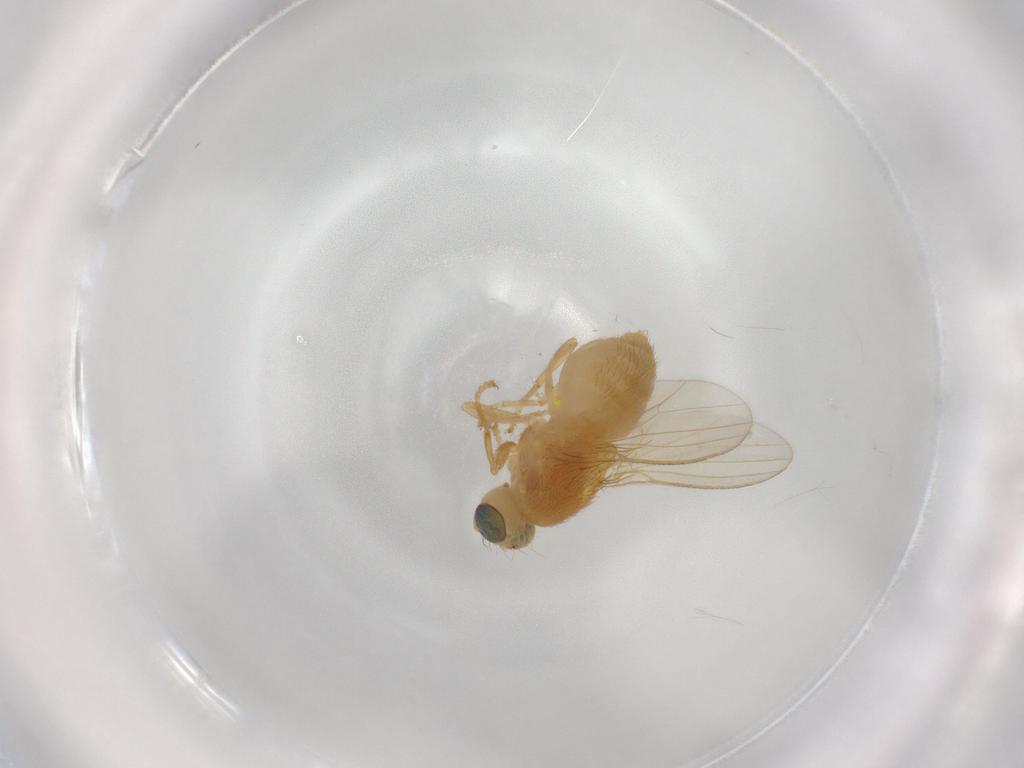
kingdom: Animalia
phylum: Arthropoda
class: Insecta
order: Diptera
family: Chyromyidae
